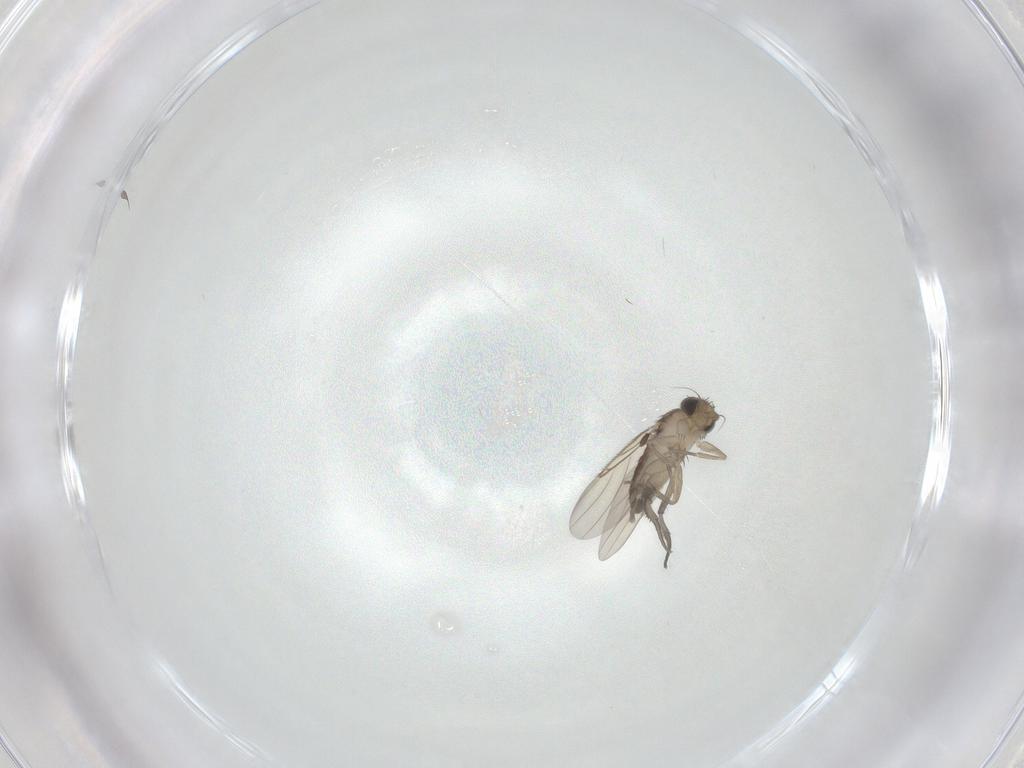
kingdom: Animalia
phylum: Arthropoda
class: Insecta
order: Diptera
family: Phoridae
